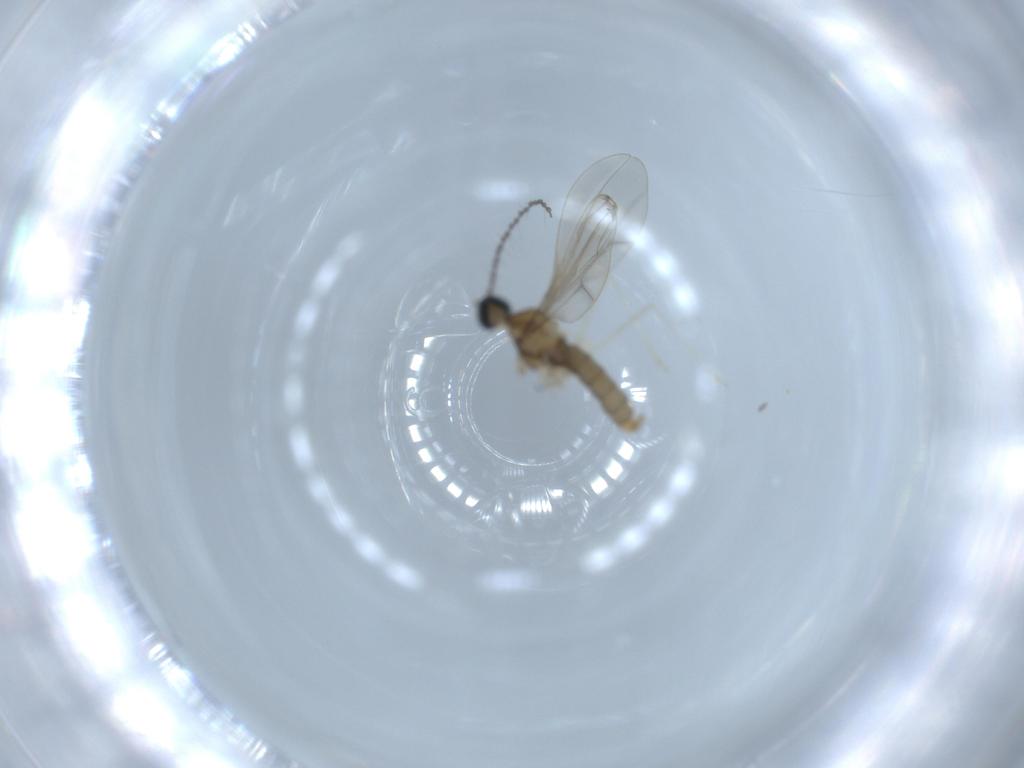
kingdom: Animalia
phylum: Arthropoda
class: Insecta
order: Diptera
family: Cecidomyiidae
